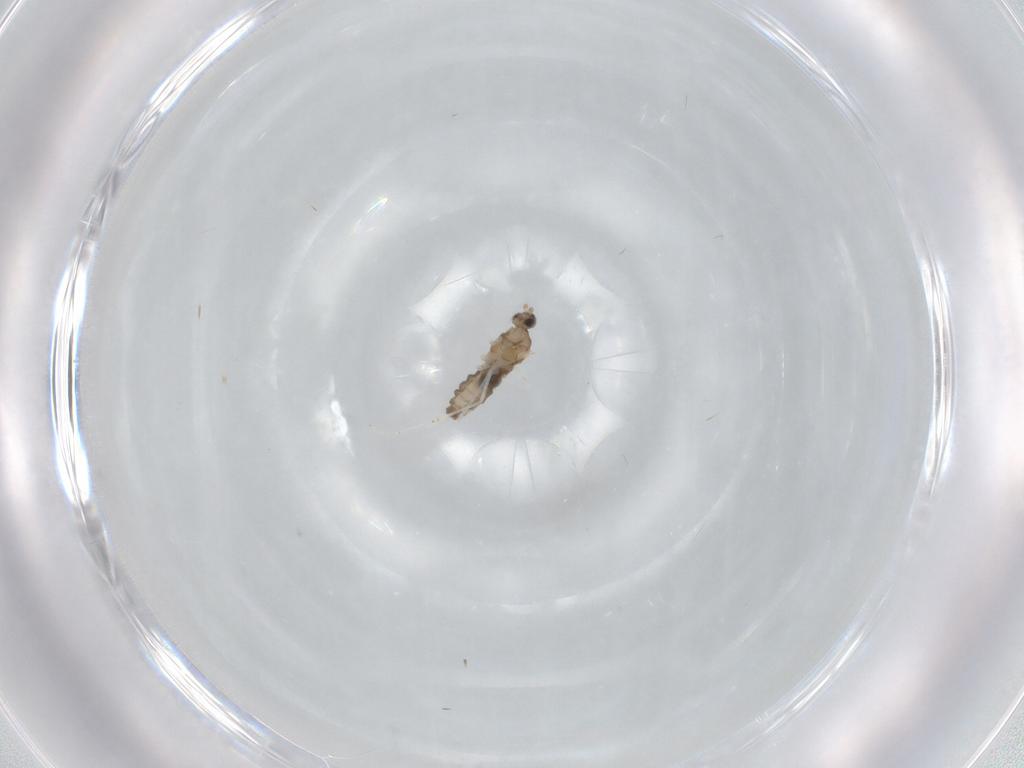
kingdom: Animalia
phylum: Arthropoda
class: Insecta
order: Diptera
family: Cecidomyiidae
